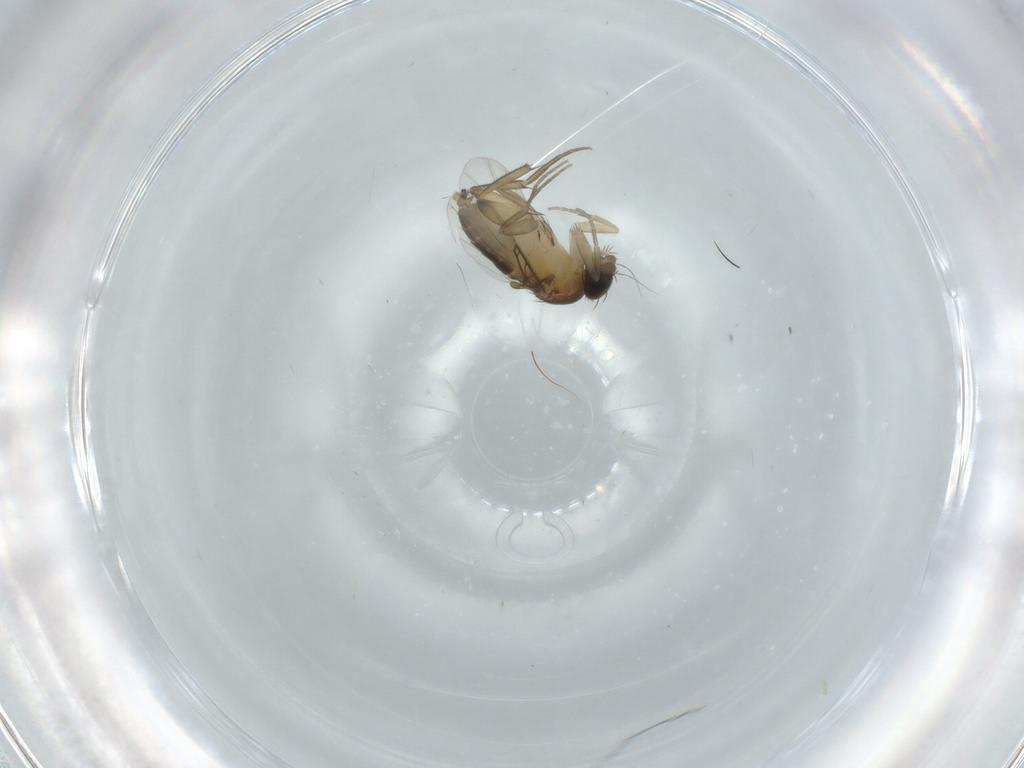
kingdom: Animalia
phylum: Arthropoda
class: Insecta
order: Diptera
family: Phoridae
